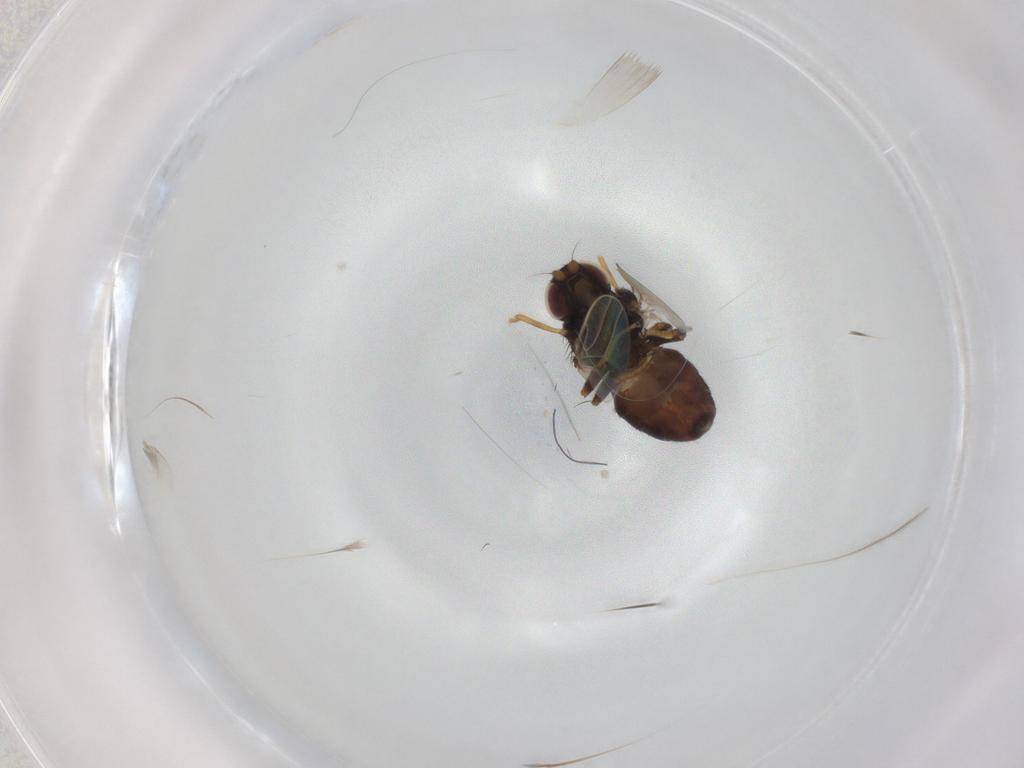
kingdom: Animalia
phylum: Arthropoda
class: Insecta
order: Diptera
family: Chloropidae
